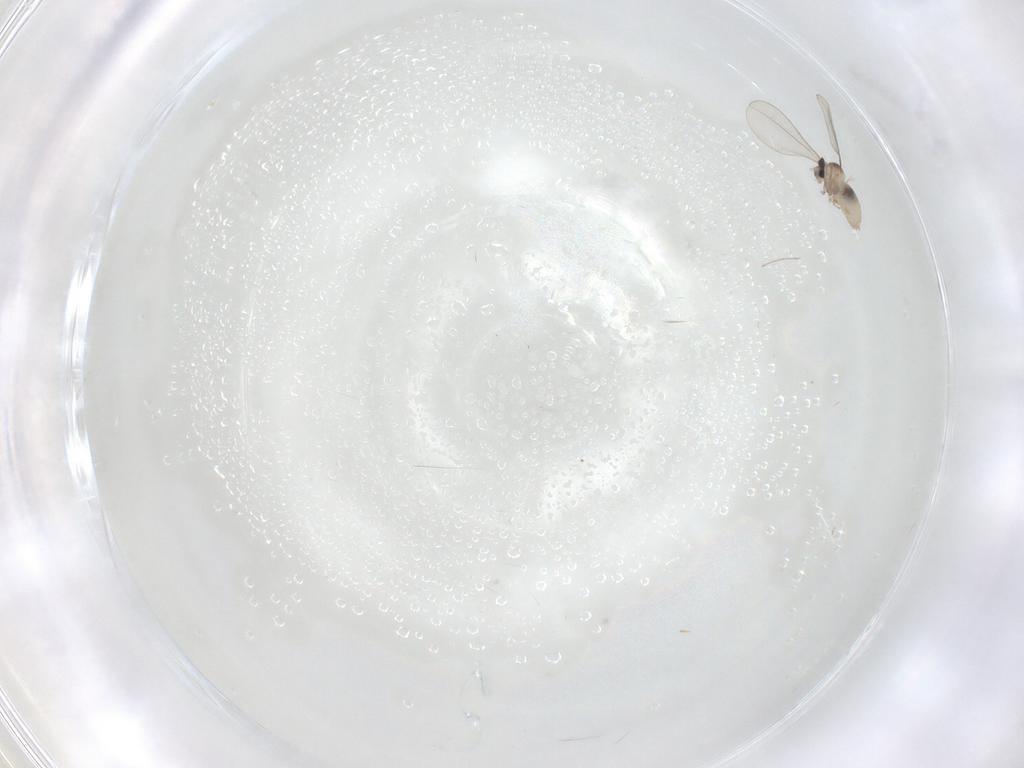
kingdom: Animalia
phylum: Arthropoda
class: Insecta
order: Diptera
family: Cecidomyiidae
